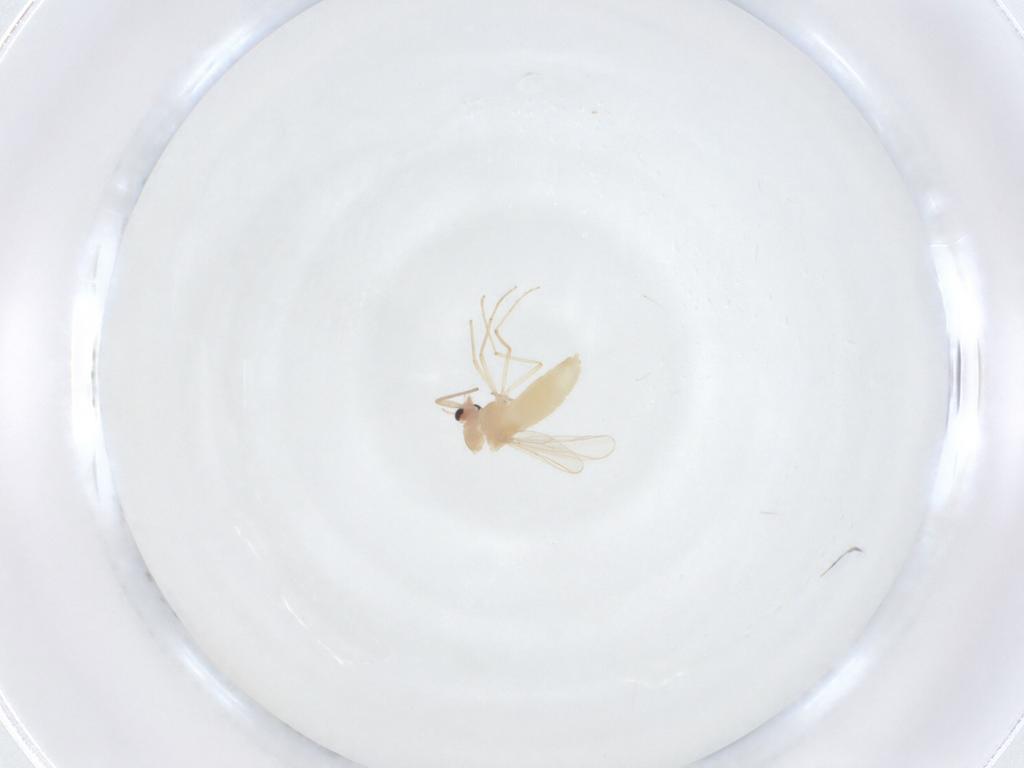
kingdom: Animalia
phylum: Arthropoda
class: Insecta
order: Diptera
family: Chironomidae
